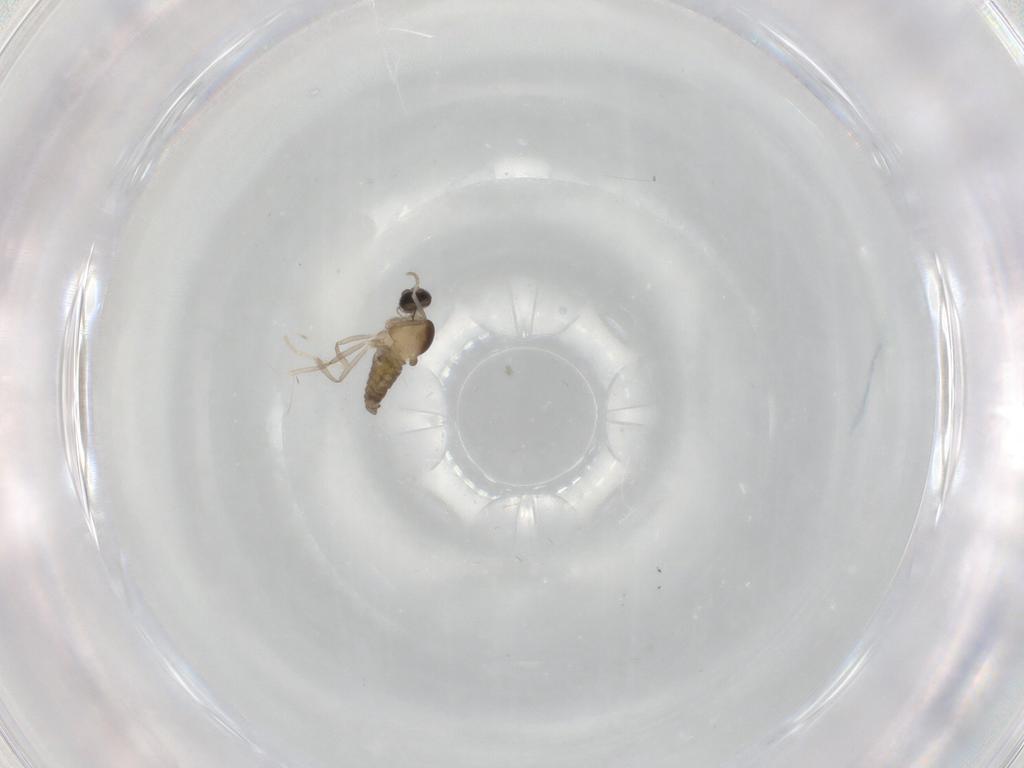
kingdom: Animalia
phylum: Arthropoda
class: Insecta
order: Diptera
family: Cecidomyiidae
